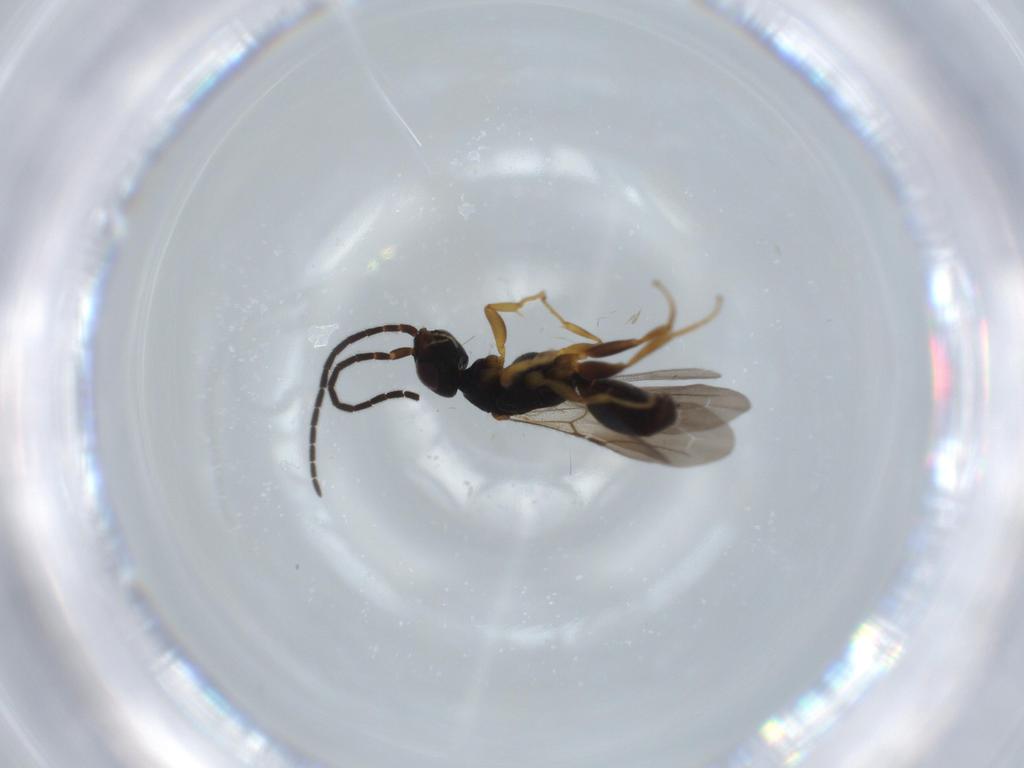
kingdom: Animalia
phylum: Arthropoda
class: Insecta
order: Hymenoptera
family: Bethylidae
